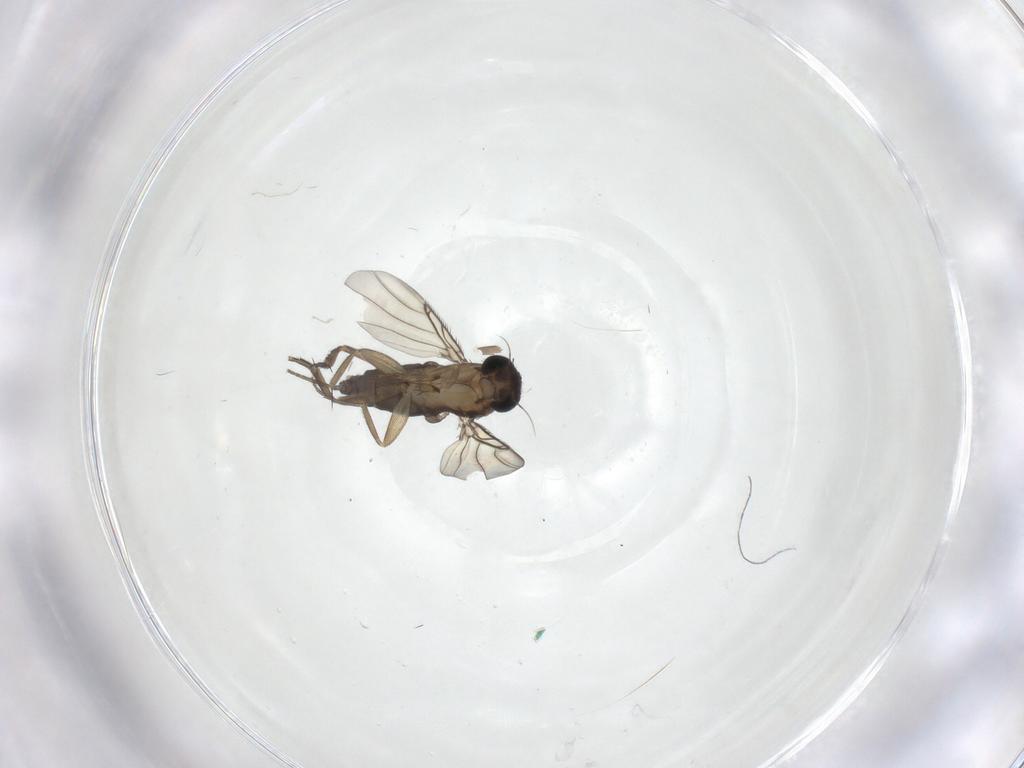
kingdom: Animalia
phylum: Arthropoda
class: Insecta
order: Diptera
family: Phoridae
